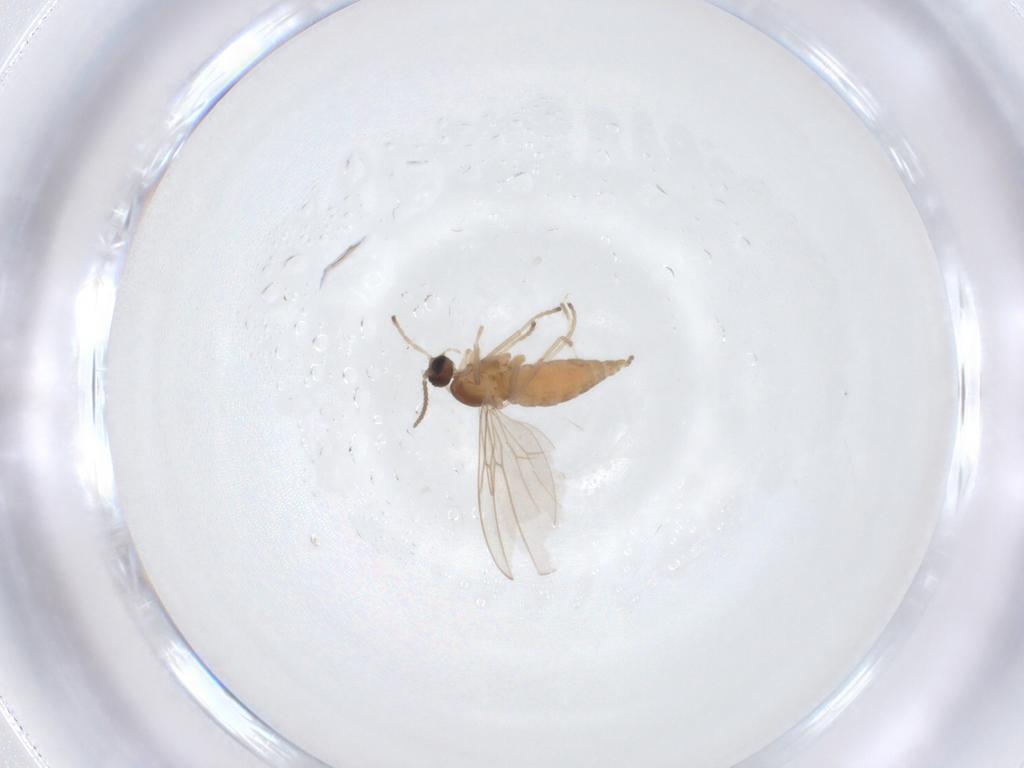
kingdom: Animalia
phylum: Arthropoda
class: Insecta
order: Diptera
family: Cecidomyiidae
